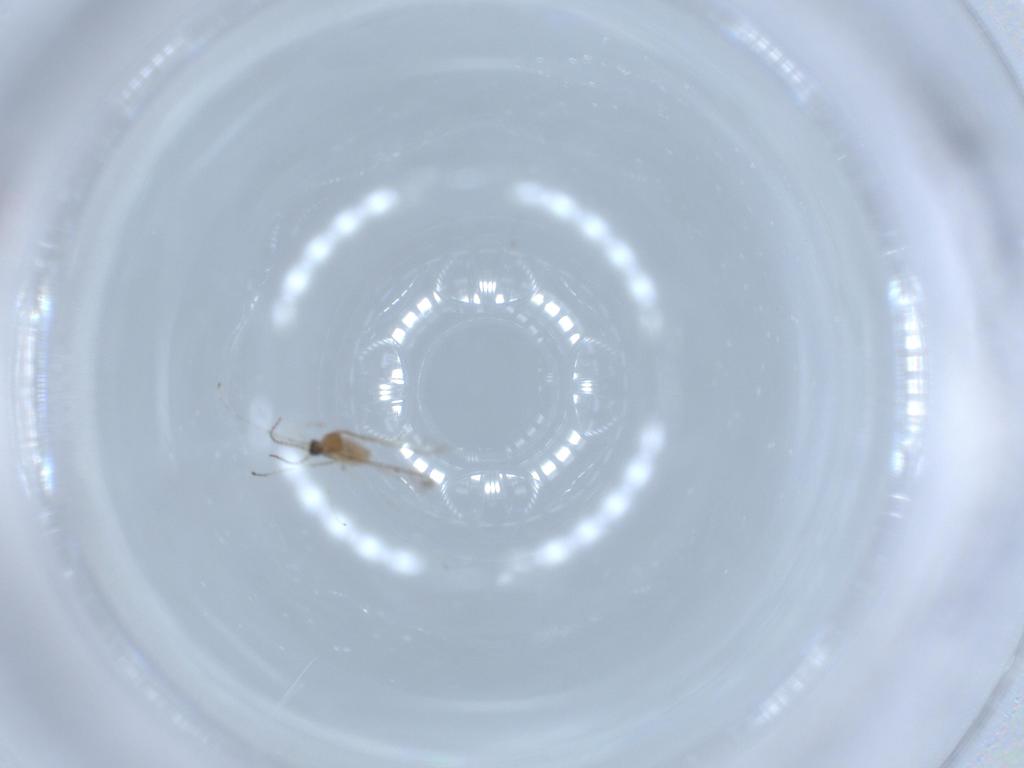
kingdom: Animalia
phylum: Arthropoda
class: Insecta
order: Diptera
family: Cecidomyiidae
